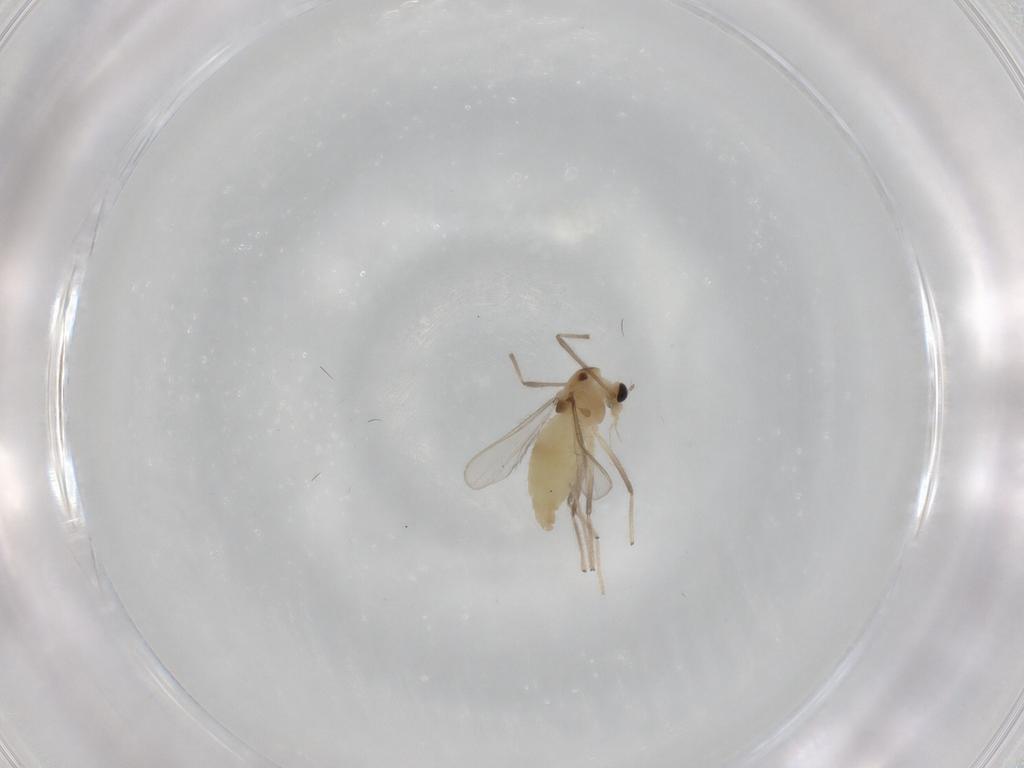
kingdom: Animalia
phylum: Arthropoda
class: Insecta
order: Diptera
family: Chironomidae
